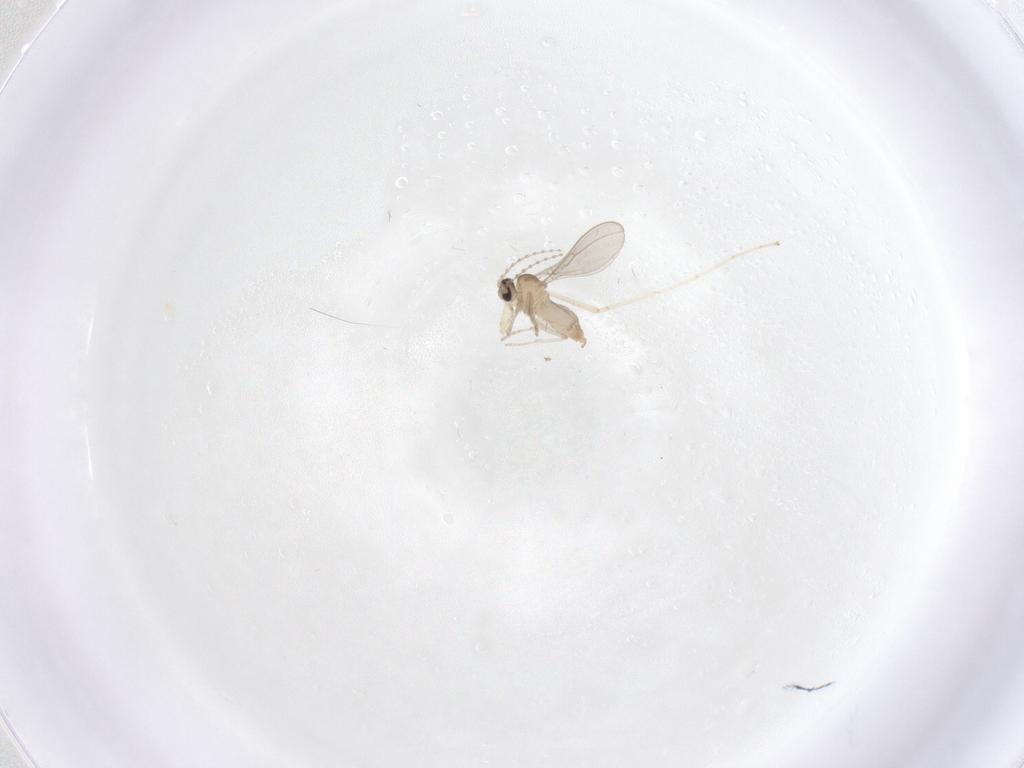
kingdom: Animalia
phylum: Arthropoda
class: Insecta
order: Diptera
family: Cecidomyiidae
